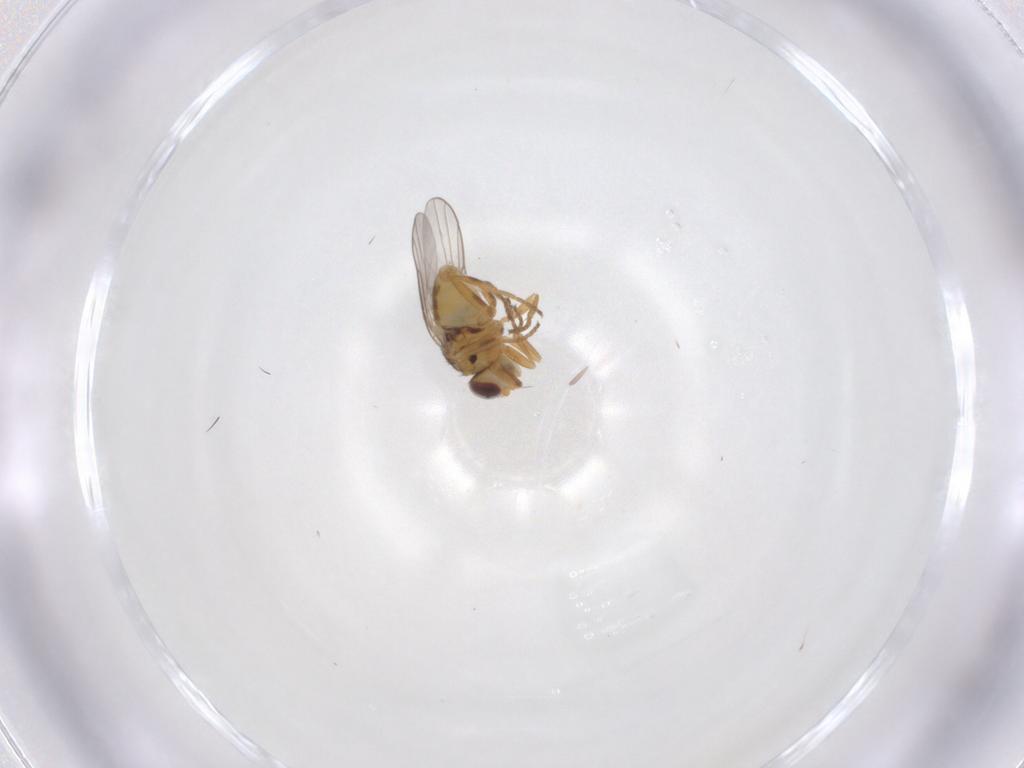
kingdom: Animalia
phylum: Arthropoda
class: Insecta
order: Diptera
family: Chloropidae
